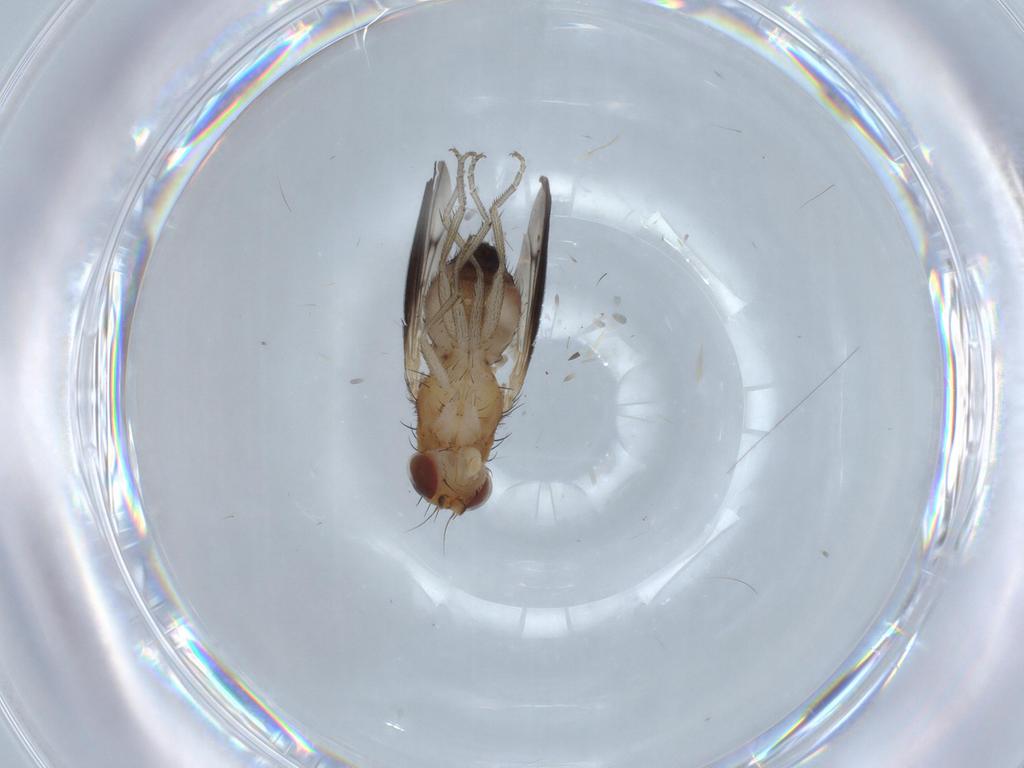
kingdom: Animalia
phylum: Arthropoda
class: Insecta
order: Diptera
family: Heleomyzidae
